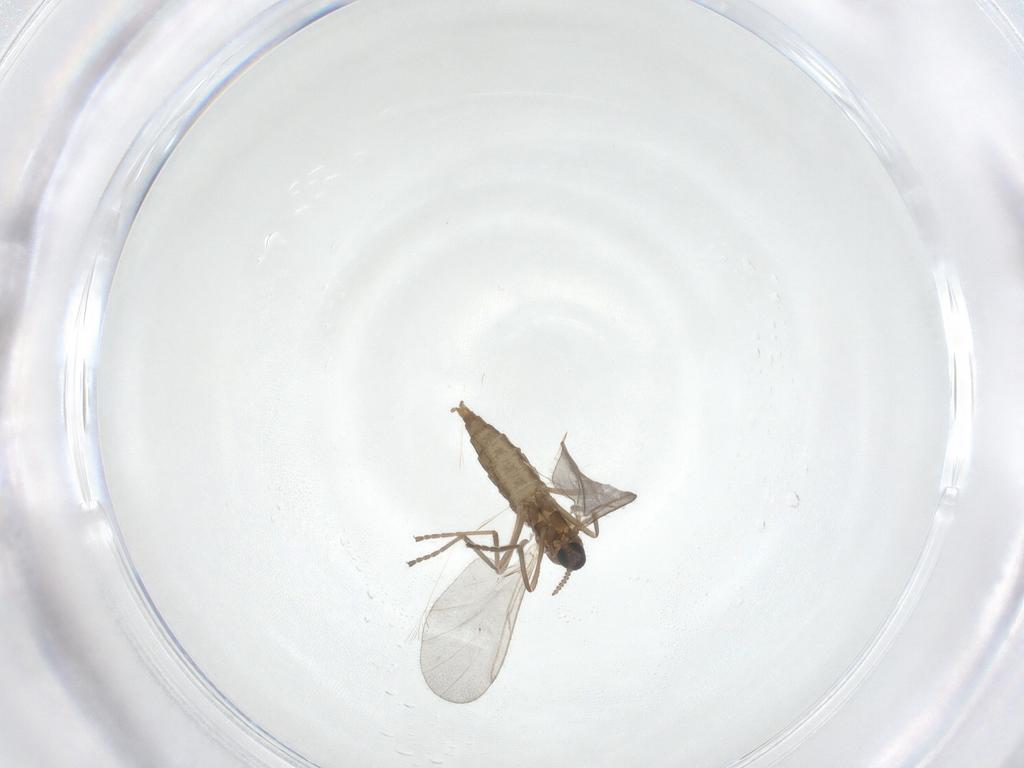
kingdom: Animalia
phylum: Arthropoda
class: Insecta
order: Diptera
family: Cecidomyiidae
